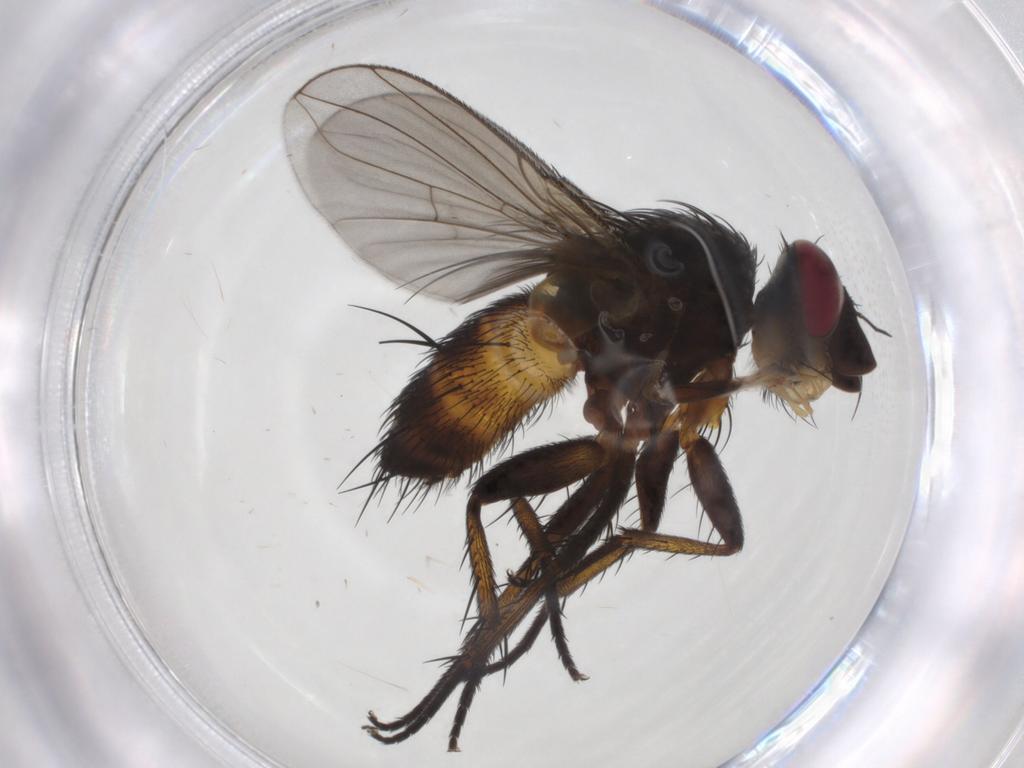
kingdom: Animalia
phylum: Arthropoda
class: Insecta
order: Diptera
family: Tachinidae
